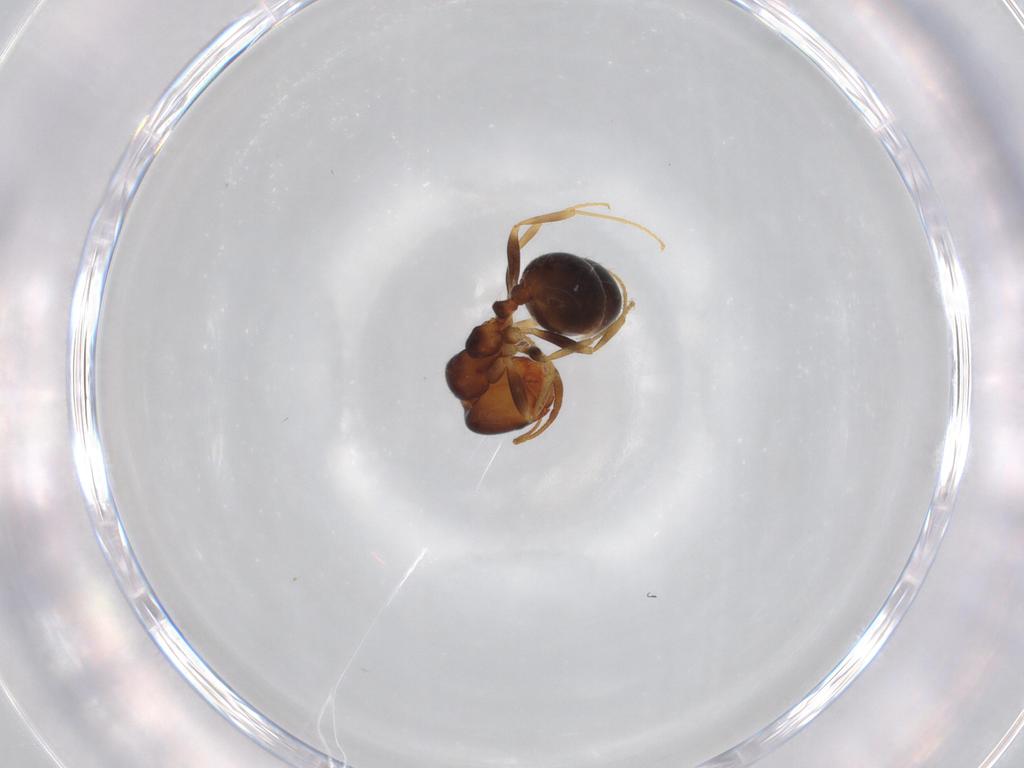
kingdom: Animalia
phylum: Arthropoda
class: Insecta
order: Hymenoptera
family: Formicidae
